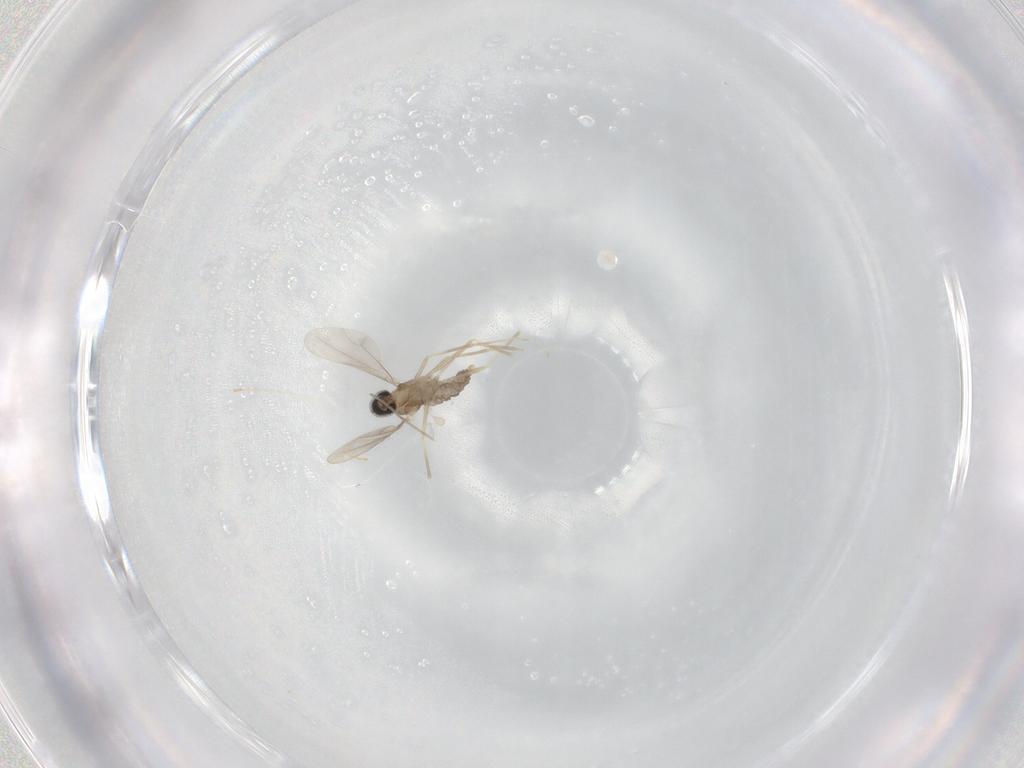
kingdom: Animalia
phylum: Arthropoda
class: Insecta
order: Diptera
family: Cecidomyiidae
